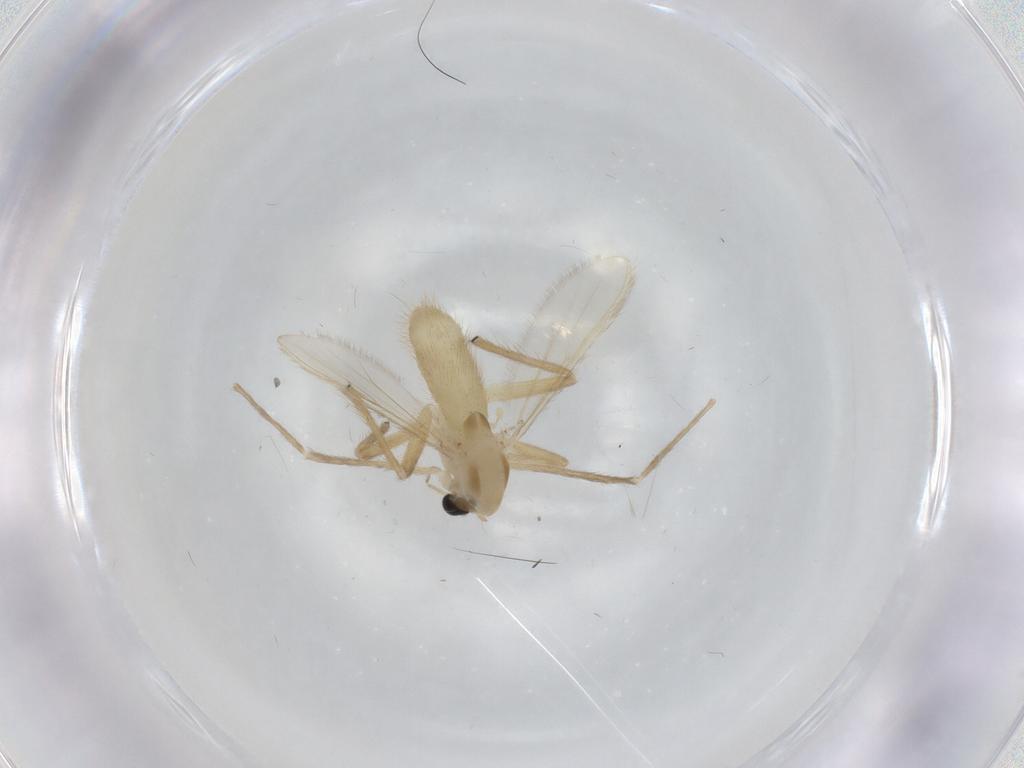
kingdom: Animalia
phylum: Arthropoda
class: Insecta
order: Diptera
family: Chironomidae
